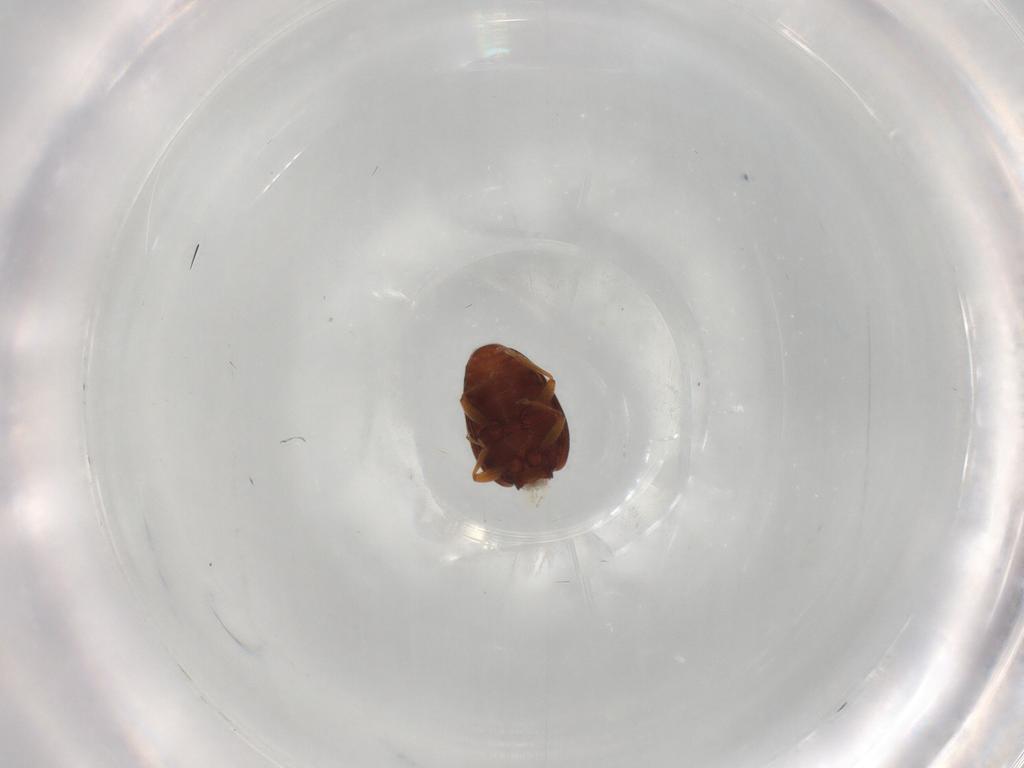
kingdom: Animalia
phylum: Arthropoda
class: Insecta
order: Coleoptera
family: Latridiidae
